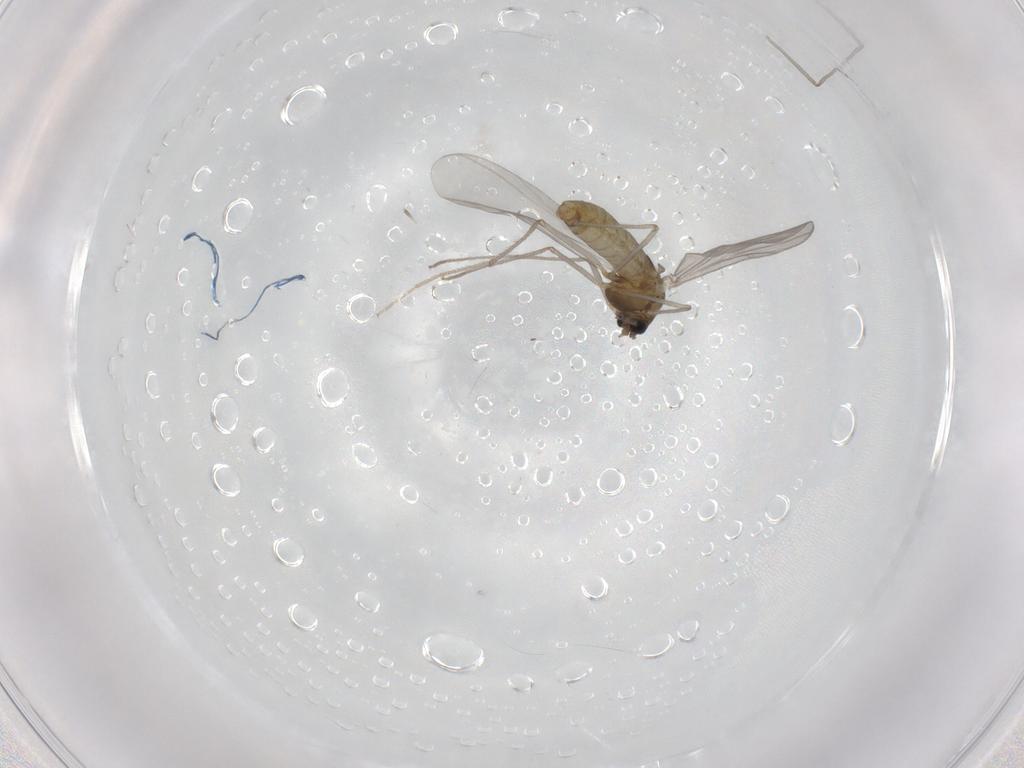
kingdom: Animalia
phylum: Arthropoda
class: Insecta
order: Diptera
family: Chironomidae
